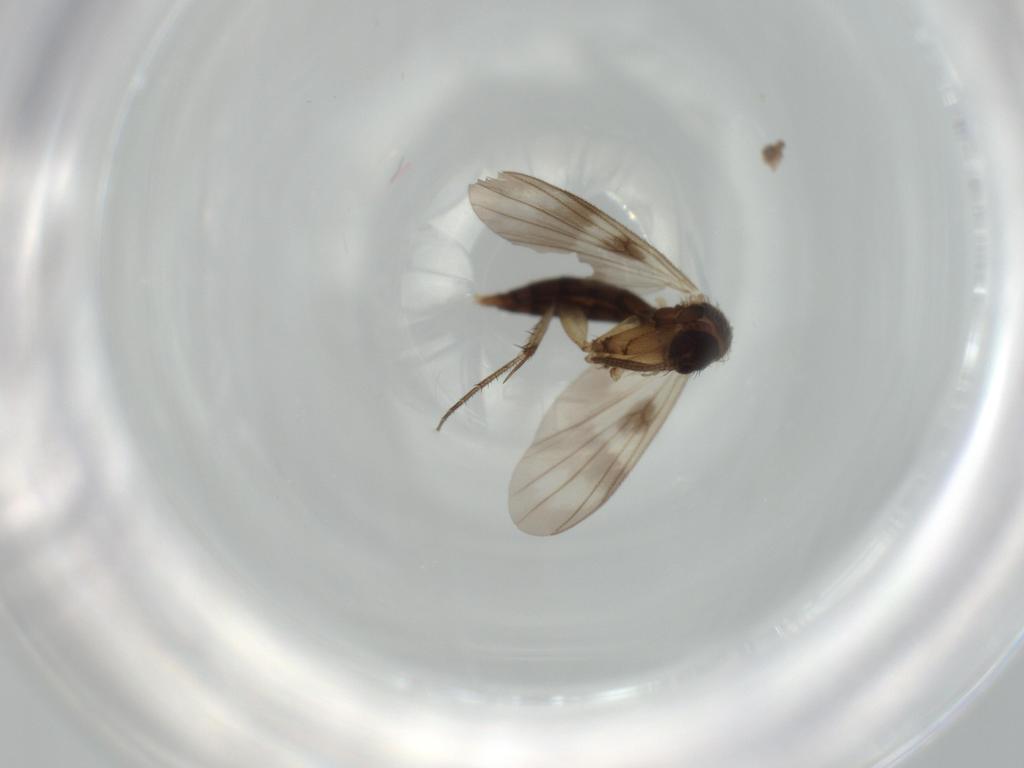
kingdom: Animalia
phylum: Arthropoda
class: Insecta
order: Diptera
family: Chironomidae
